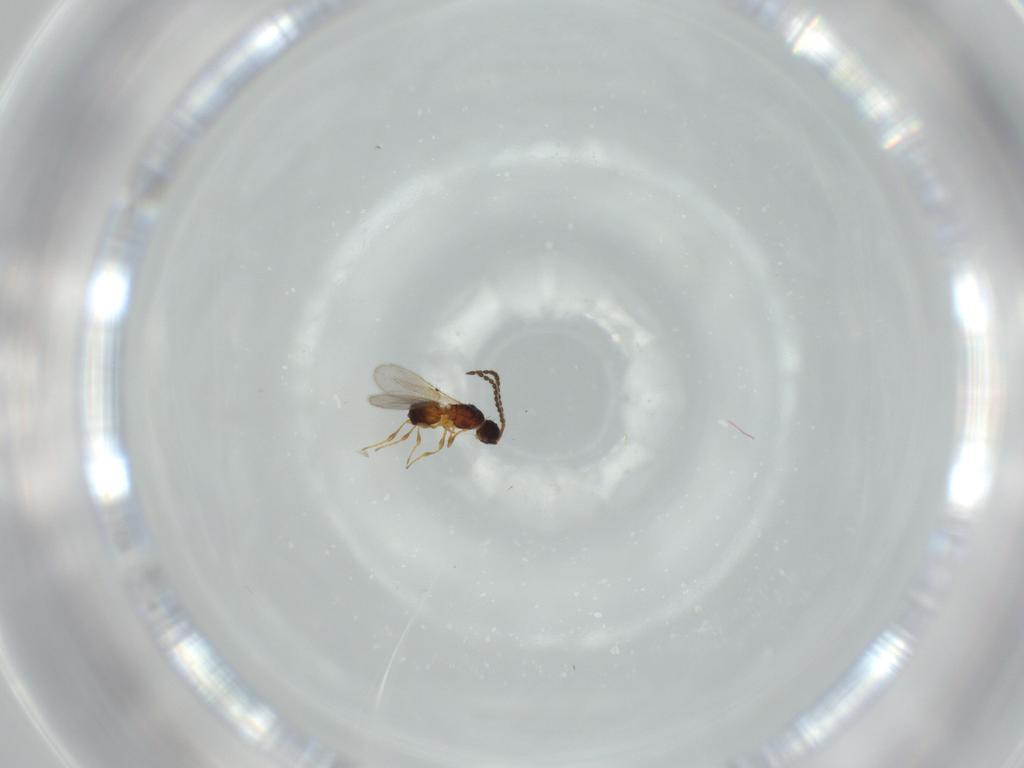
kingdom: Animalia
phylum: Arthropoda
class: Insecta
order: Hymenoptera
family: Diapriidae
